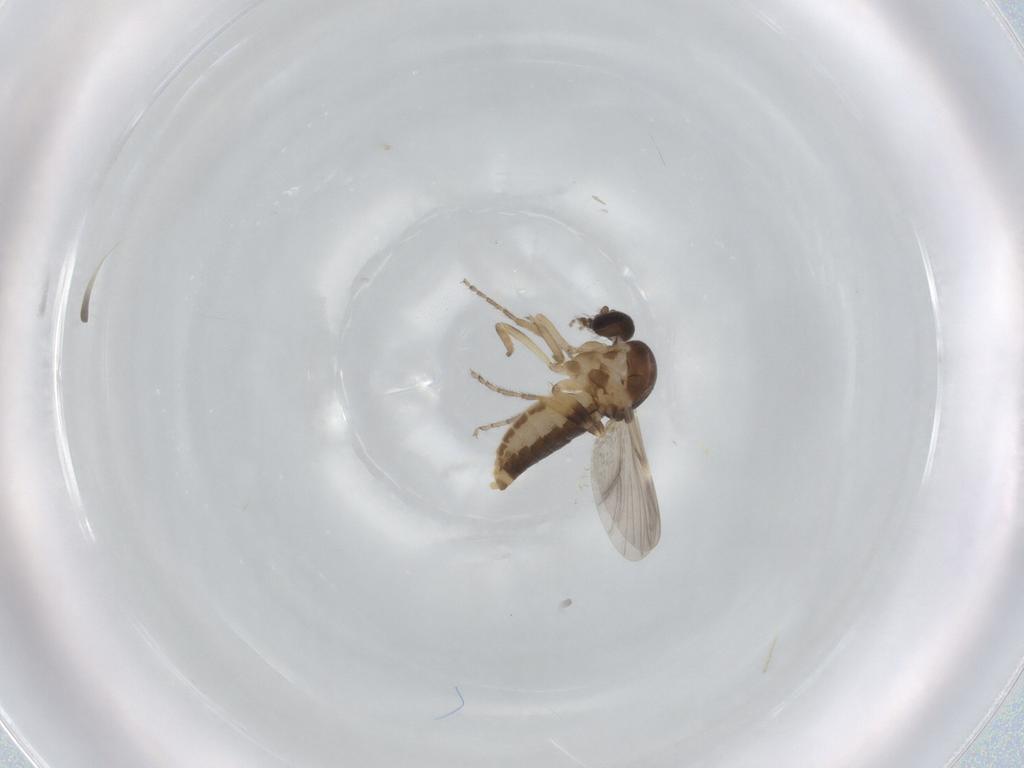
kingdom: Animalia
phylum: Arthropoda
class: Insecta
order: Diptera
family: Ceratopogonidae
